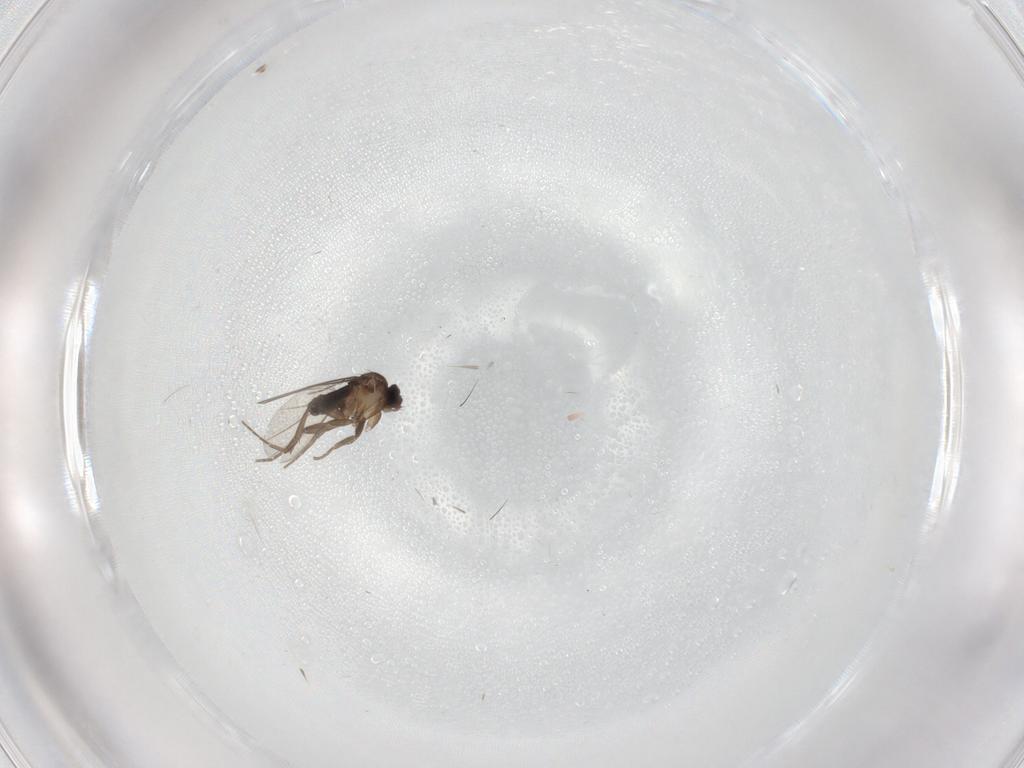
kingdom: Animalia
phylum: Arthropoda
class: Insecta
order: Diptera
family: Phoridae
